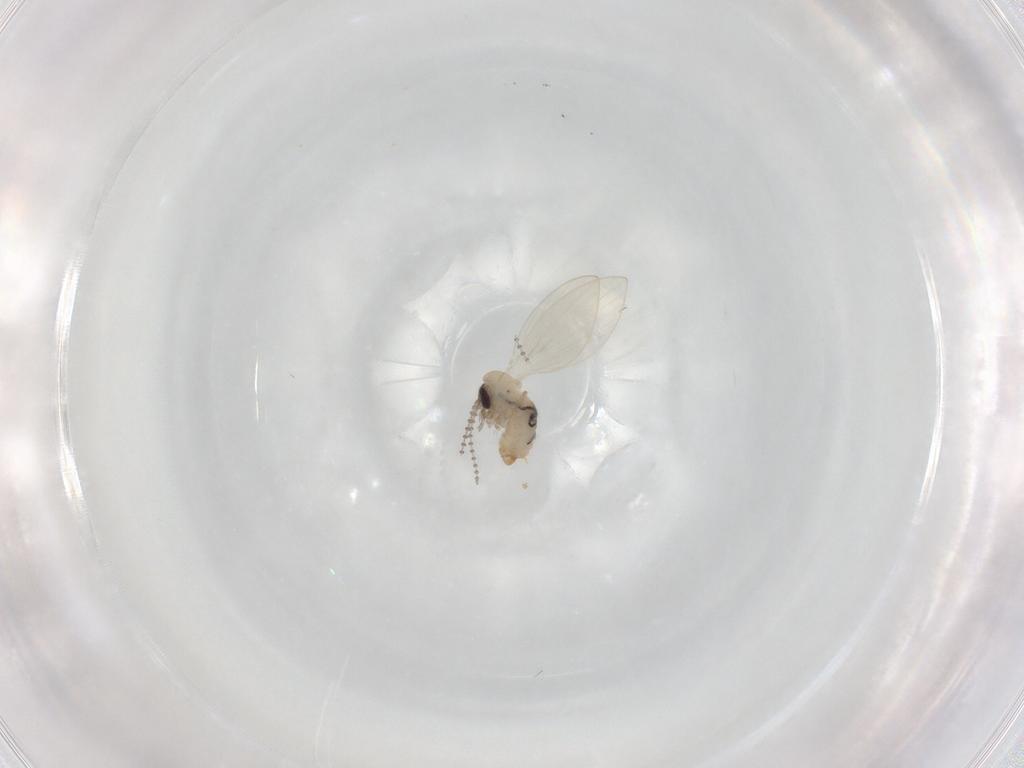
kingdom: Animalia
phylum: Arthropoda
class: Insecta
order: Diptera
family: Psychodidae
